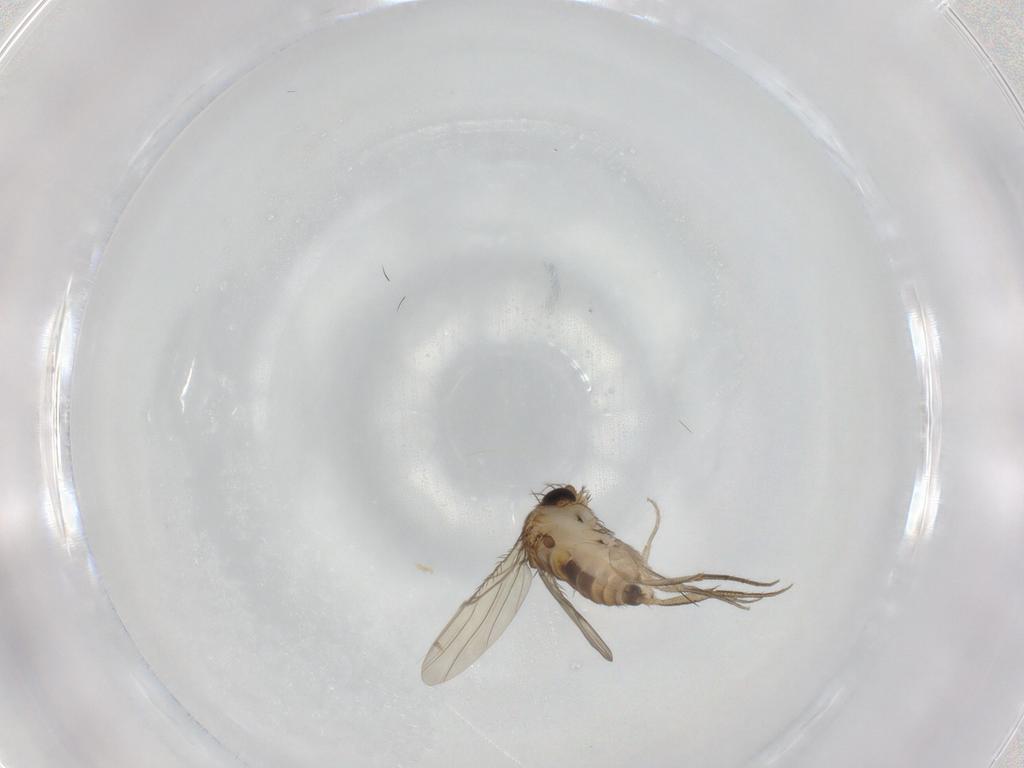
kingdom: Animalia
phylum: Arthropoda
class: Insecta
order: Diptera
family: Phoridae
